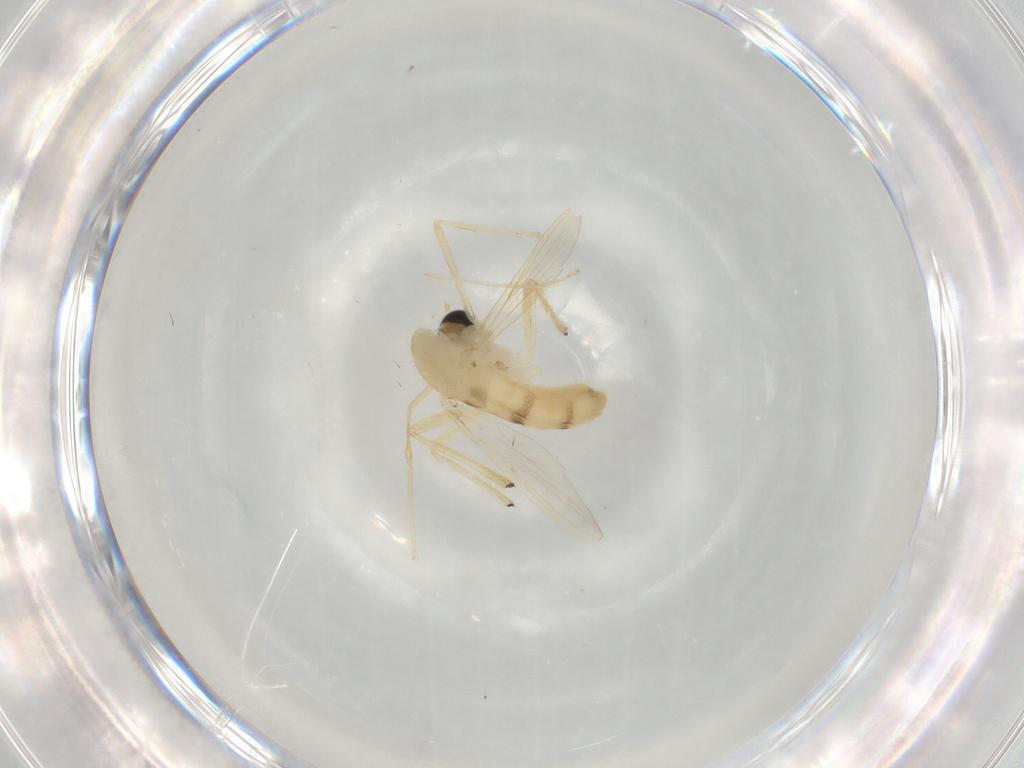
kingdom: Animalia
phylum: Arthropoda
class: Insecta
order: Diptera
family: Chironomidae
